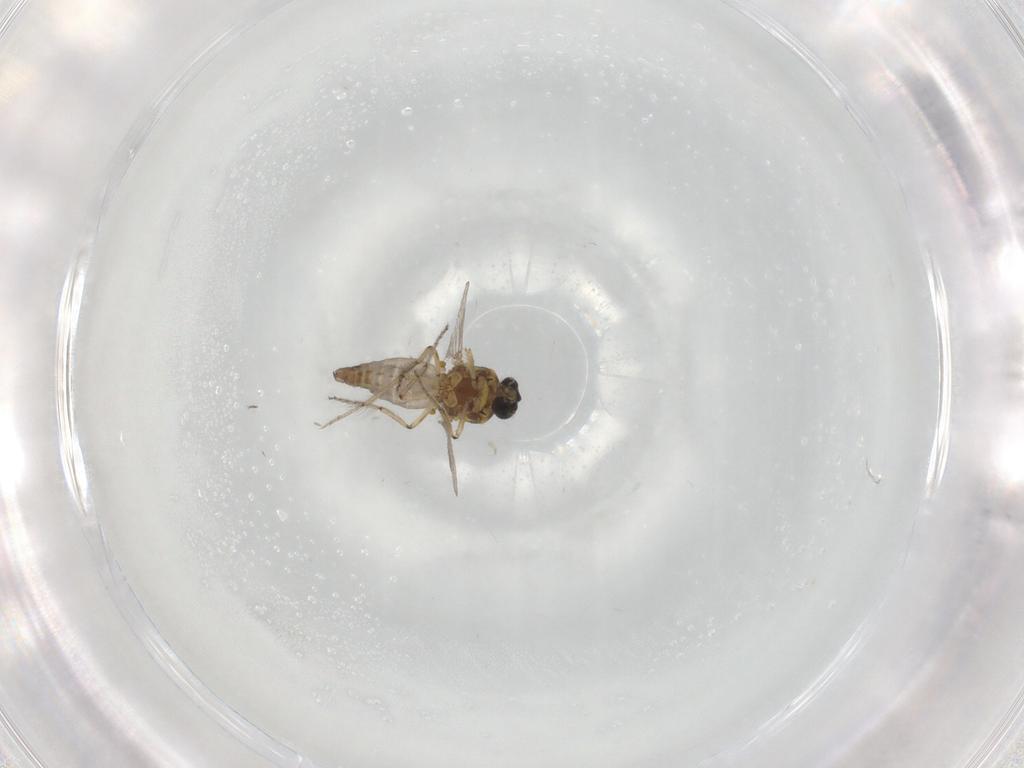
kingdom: Animalia
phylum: Arthropoda
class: Insecta
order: Diptera
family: Ceratopogonidae
